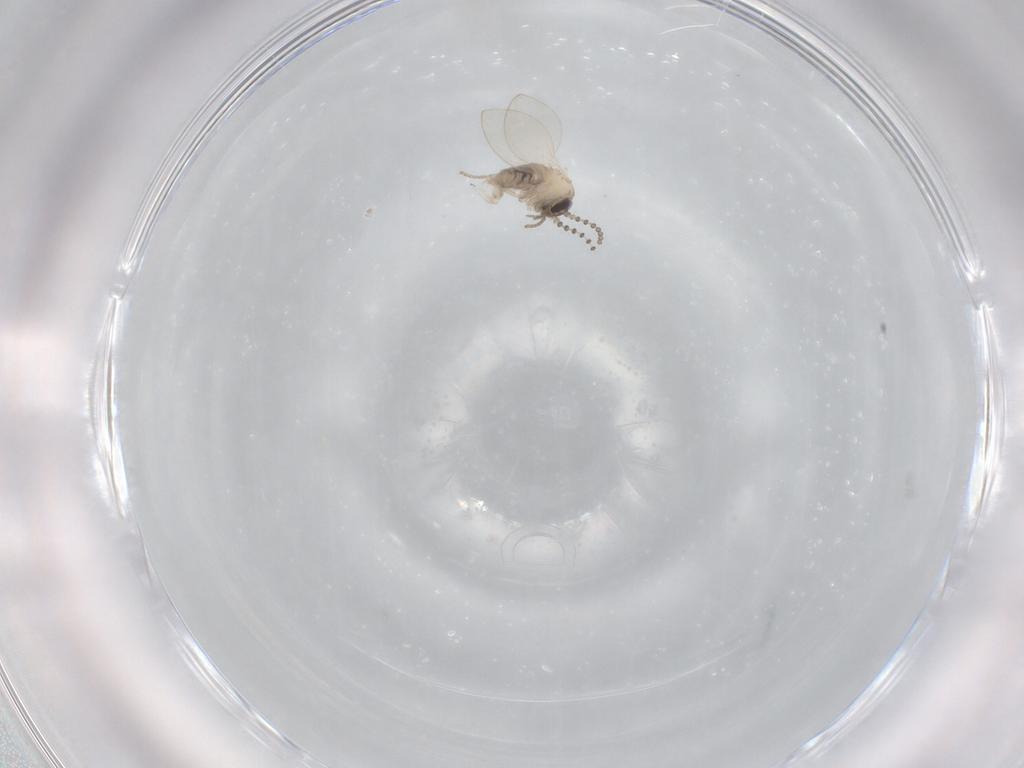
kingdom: Animalia
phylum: Arthropoda
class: Insecta
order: Diptera
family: Psychodidae
